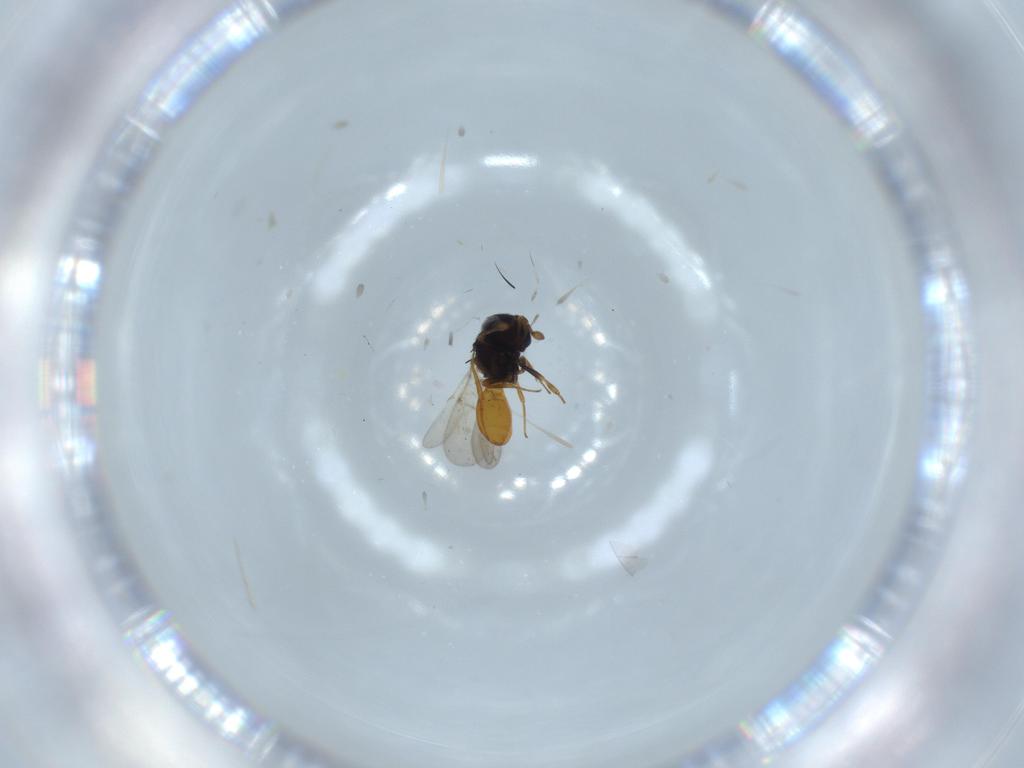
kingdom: Animalia
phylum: Arthropoda
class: Insecta
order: Hymenoptera
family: Scelionidae
